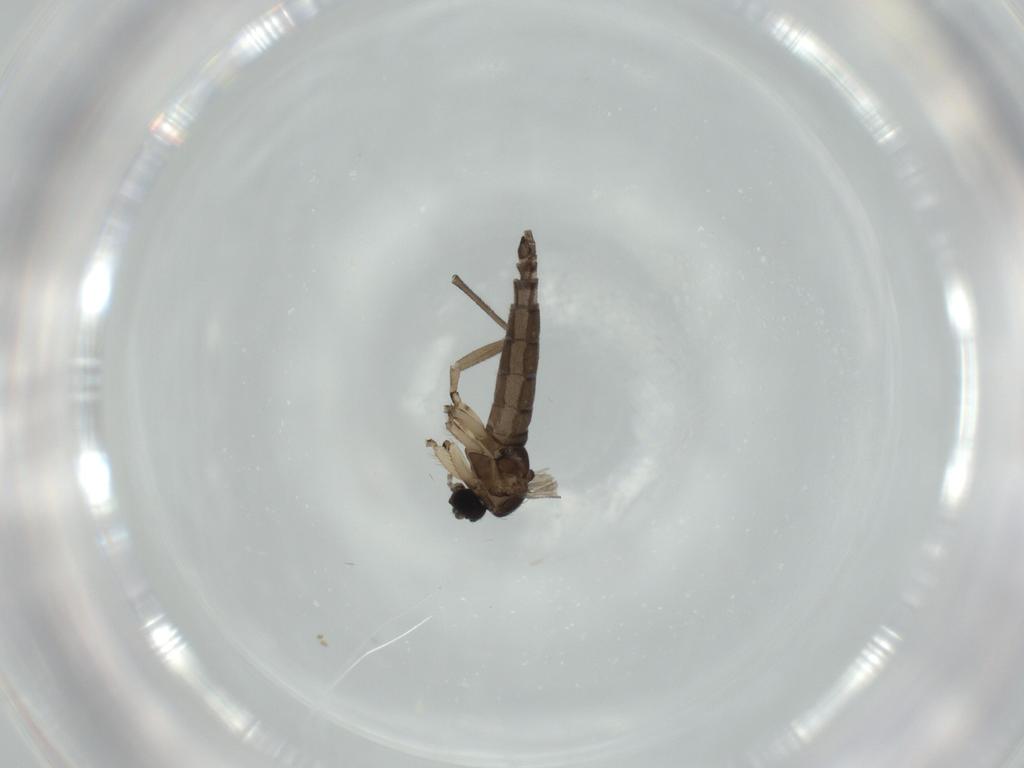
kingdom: Animalia
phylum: Arthropoda
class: Insecta
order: Diptera
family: Sciaridae
